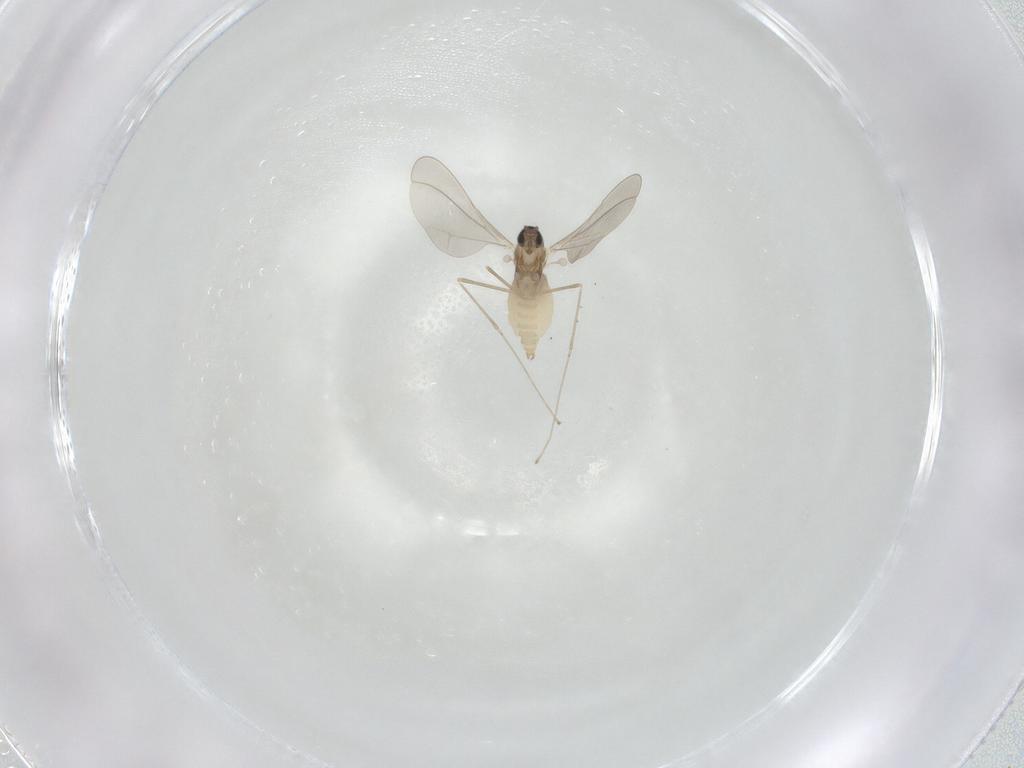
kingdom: Animalia
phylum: Arthropoda
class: Insecta
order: Diptera
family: Cecidomyiidae
